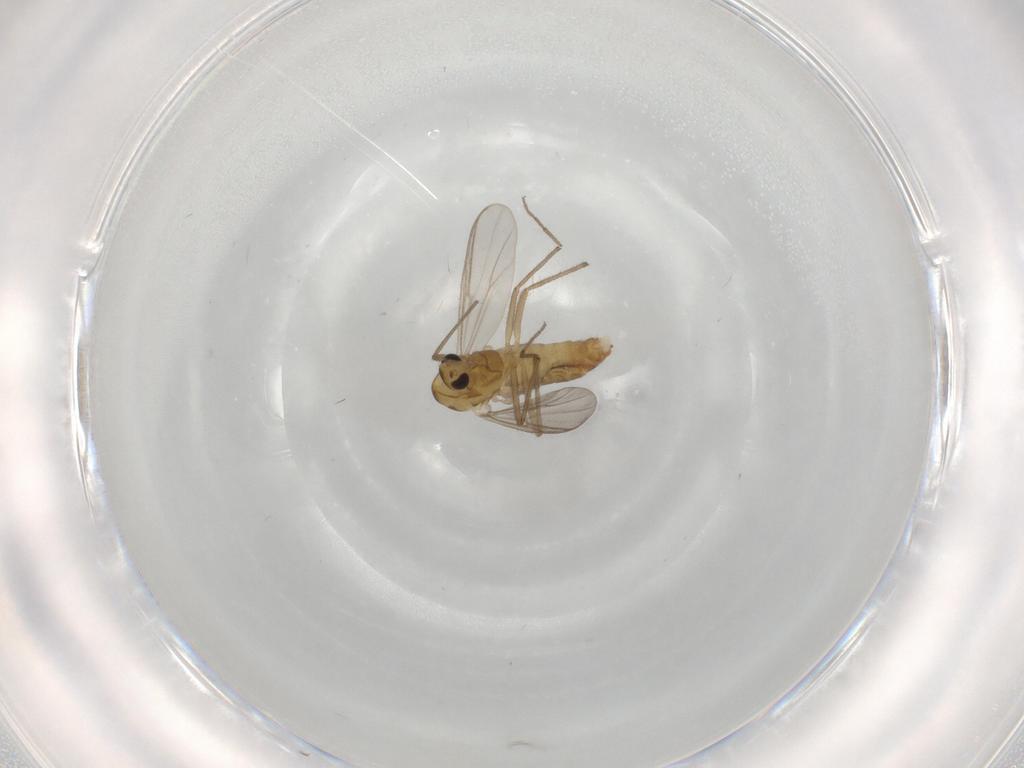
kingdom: Animalia
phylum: Arthropoda
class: Insecta
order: Diptera
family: Chironomidae
